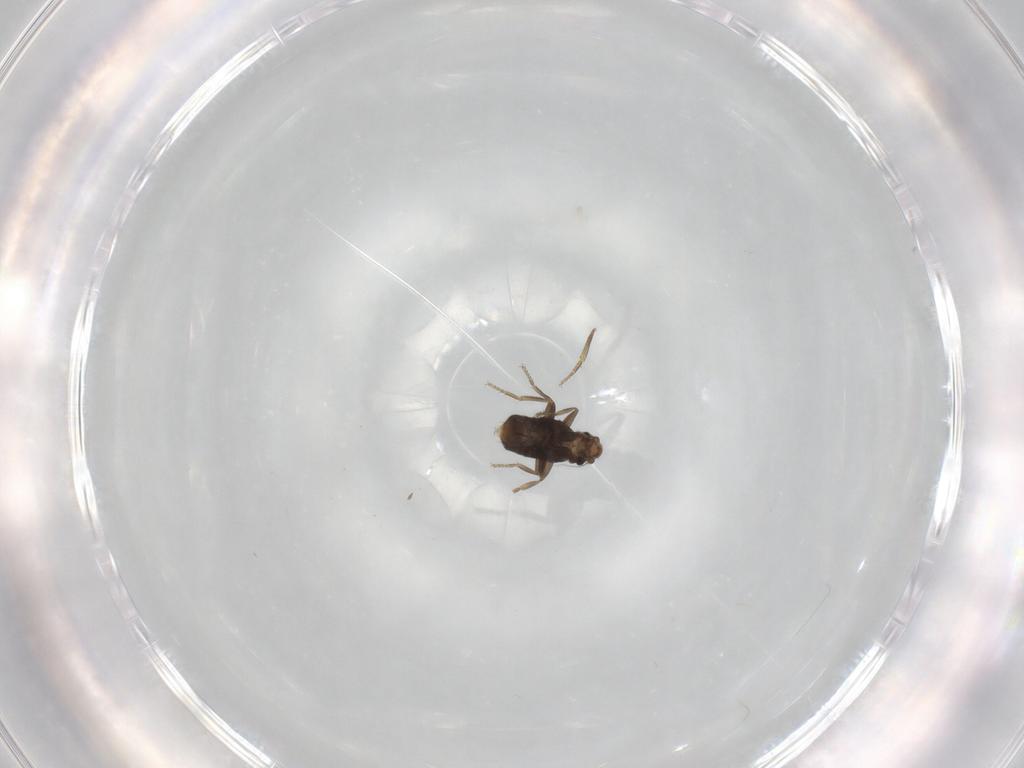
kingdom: Animalia
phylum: Arthropoda
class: Insecta
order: Diptera
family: Phoridae
